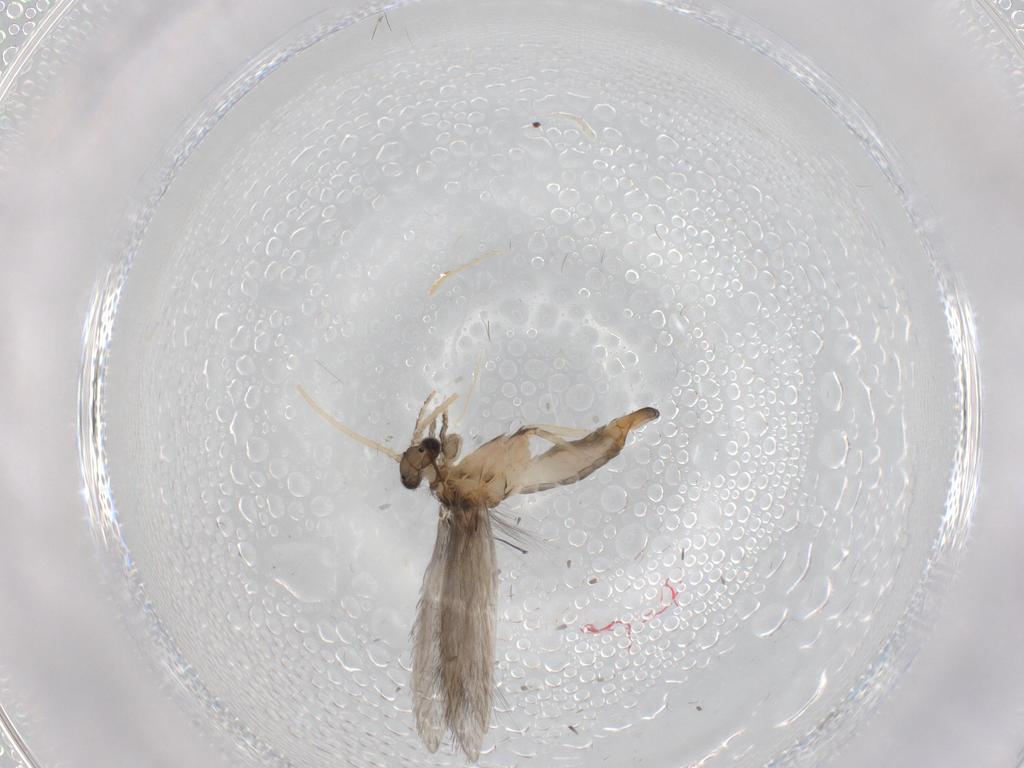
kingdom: Animalia
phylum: Arthropoda
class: Insecta
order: Trichoptera
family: Hydroptilidae
